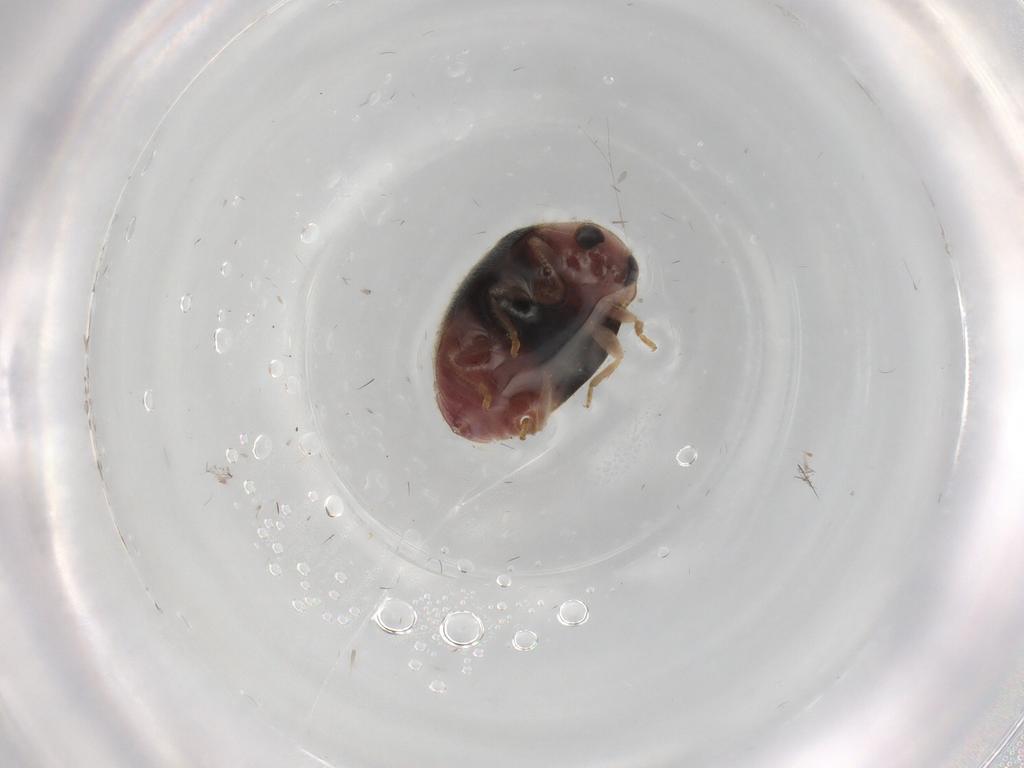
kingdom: Animalia
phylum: Arthropoda
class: Insecta
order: Coleoptera
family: Coccinellidae
